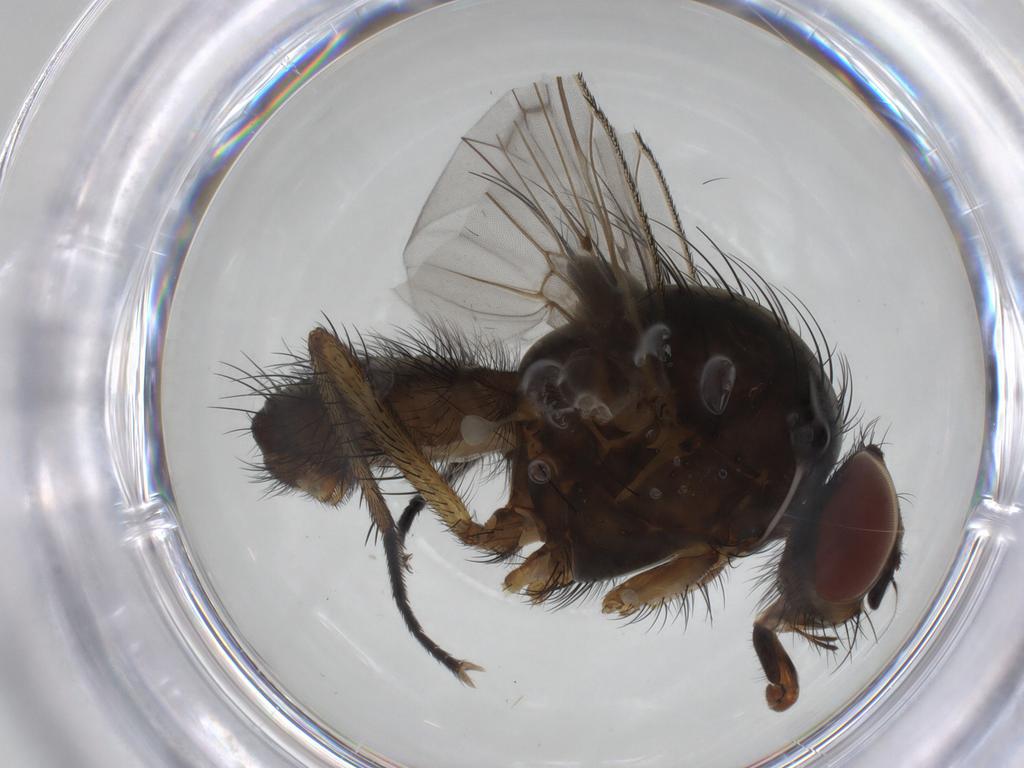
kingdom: Animalia
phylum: Arthropoda
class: Insecta
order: Diptera
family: Anthomyiidae
